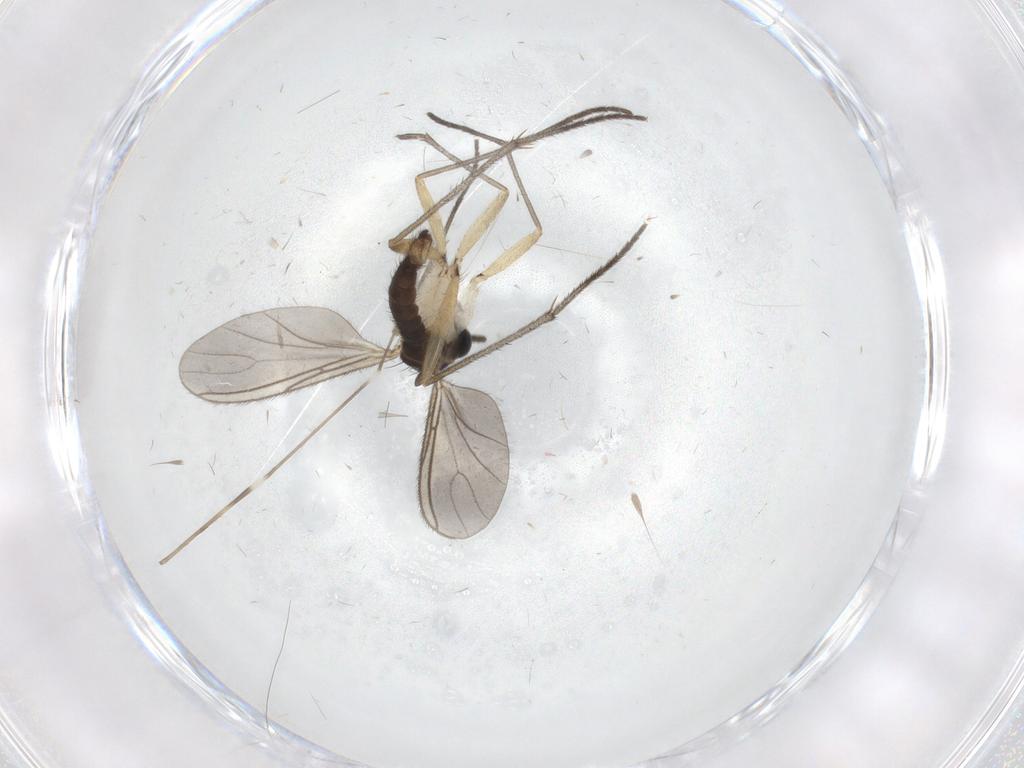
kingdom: Animalia
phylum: Arthropoda
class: Insecta
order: Diptera
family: Sciaridae
